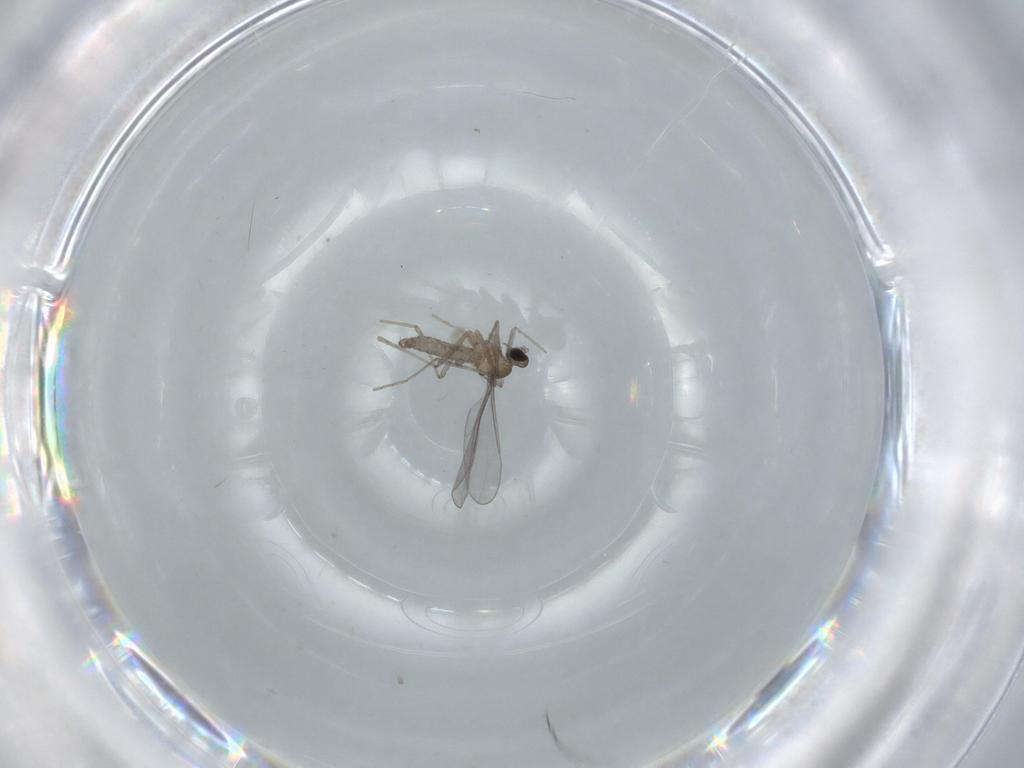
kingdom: Animalia
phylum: Arthropoda
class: Insecta
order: Diptera
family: Cecidomyiidae
